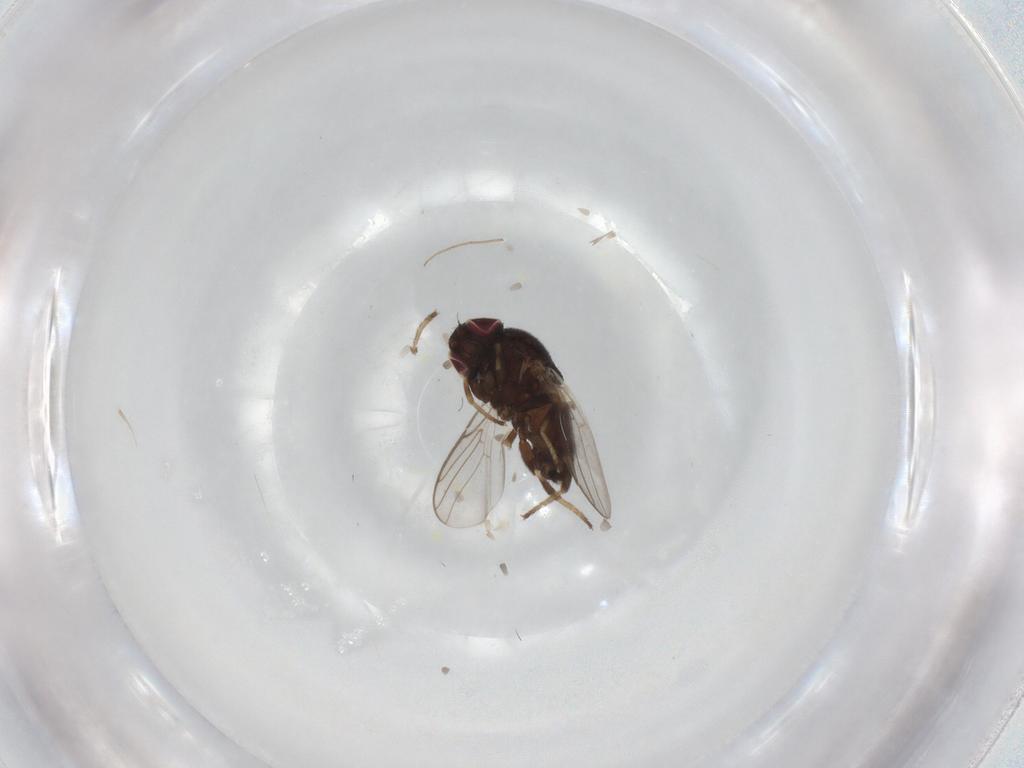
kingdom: Animalia
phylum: Arthropoda
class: Insecta
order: Diptera
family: Chloropidae
